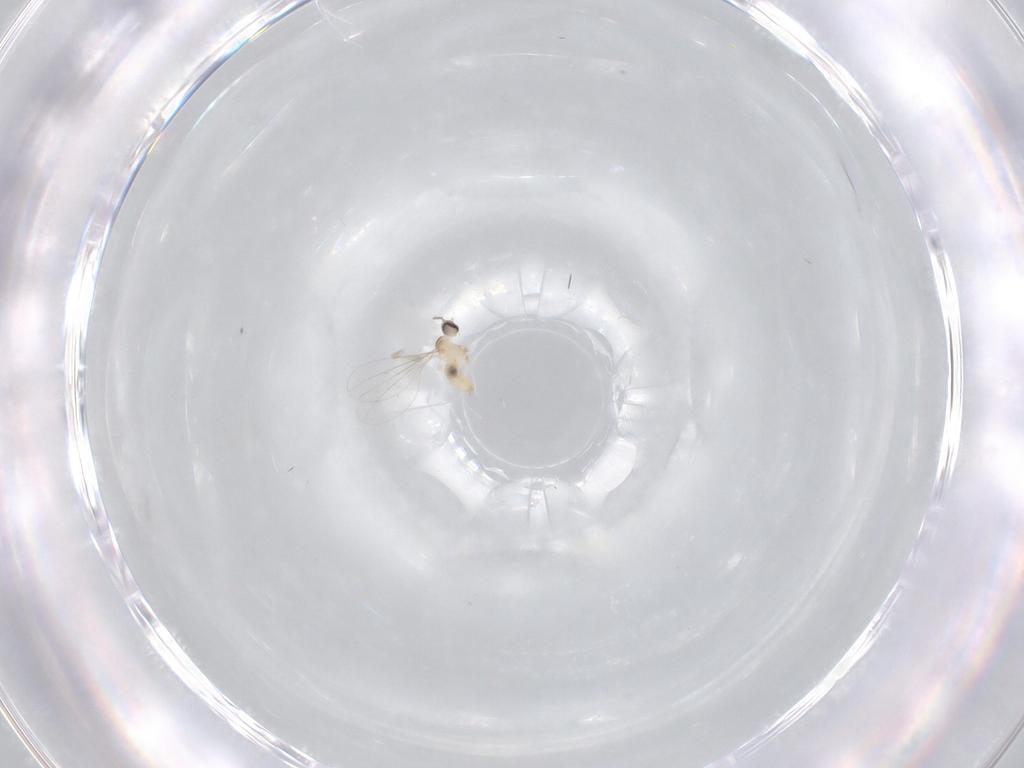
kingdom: Animalia
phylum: Arthropoda
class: Insecta
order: Diptera
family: Cecidomyiidae
